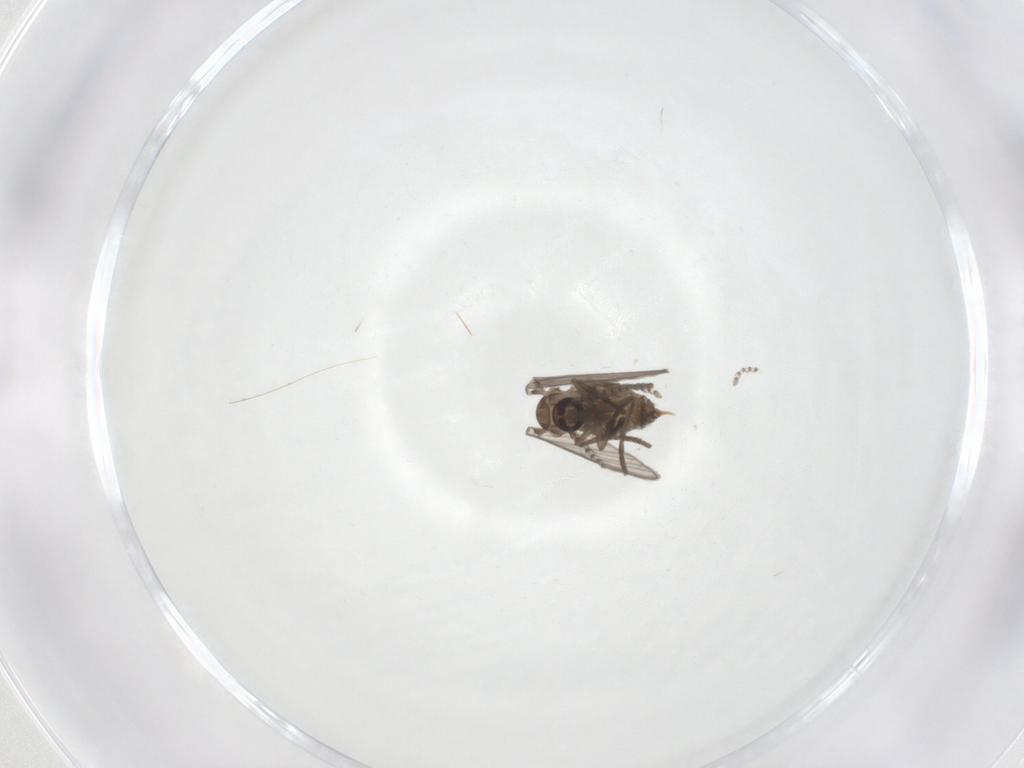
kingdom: Animalia
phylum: Arthropoda
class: Insecta
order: Diptera
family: Psychodidae
